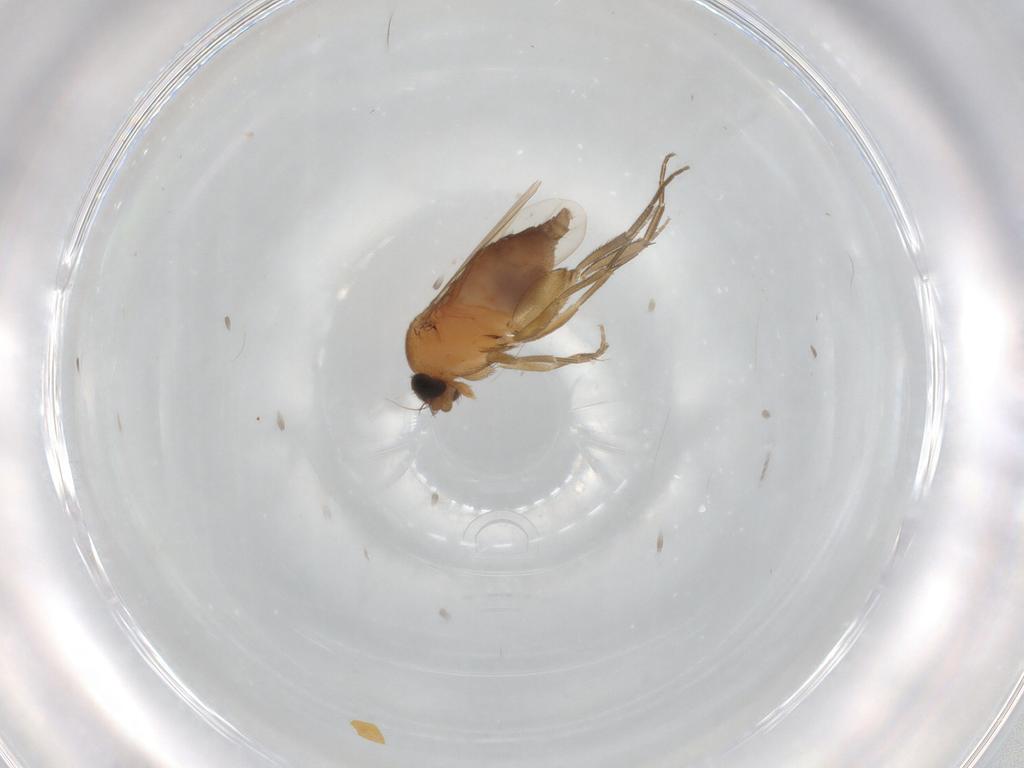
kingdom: Animalia
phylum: Arthropoda
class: Insecta
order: Diptera
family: Phoridae
